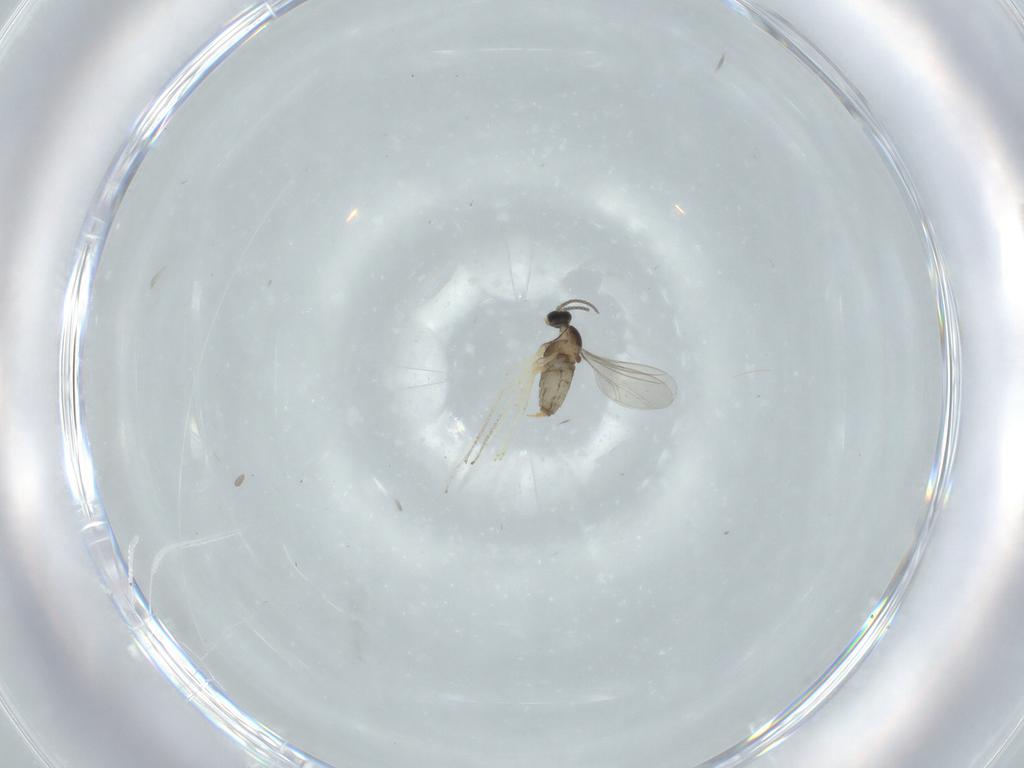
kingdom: Animalia
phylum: Arthropoda
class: Insecta
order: Diptera
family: Cecidomyiidae
